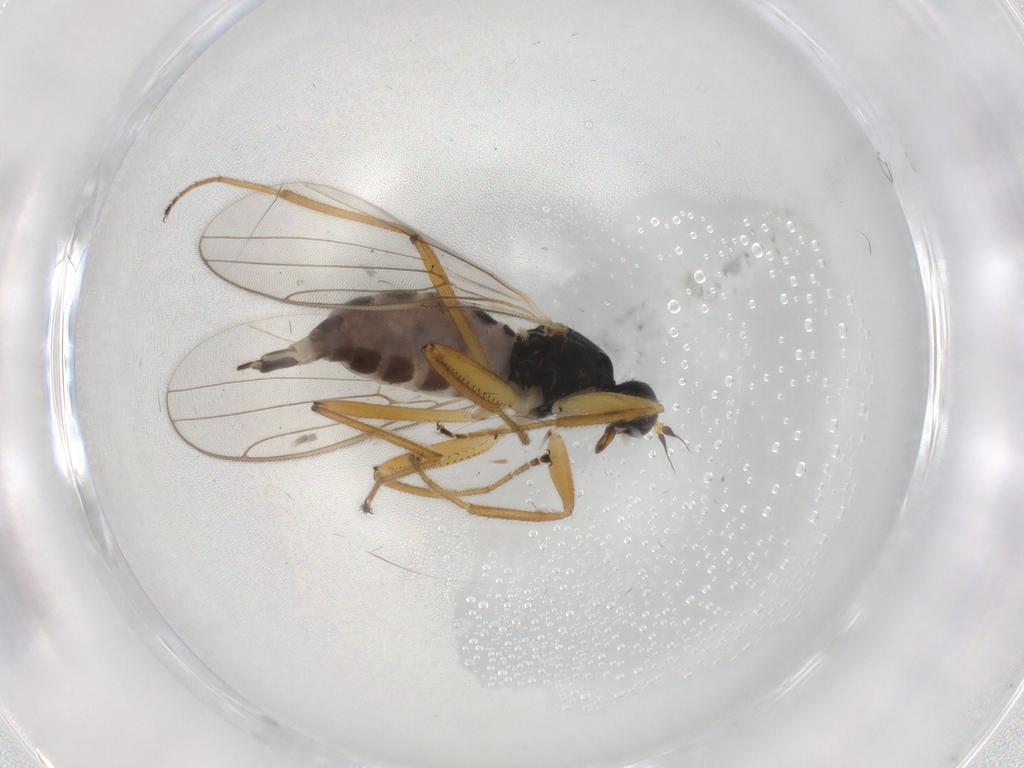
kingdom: Animalia
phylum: Arthropoda
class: Insecta
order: Diptera
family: Hybotidae
